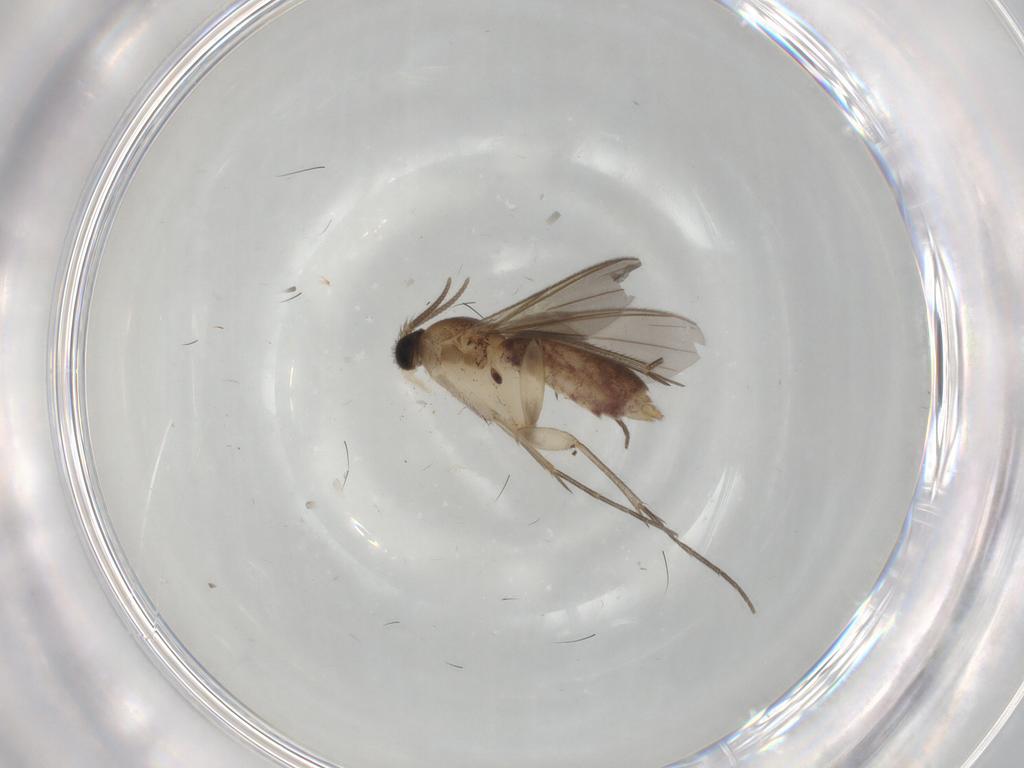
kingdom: Animalia
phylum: Arthropoda
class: Insecta
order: Diptera
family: Mycetophilidae
